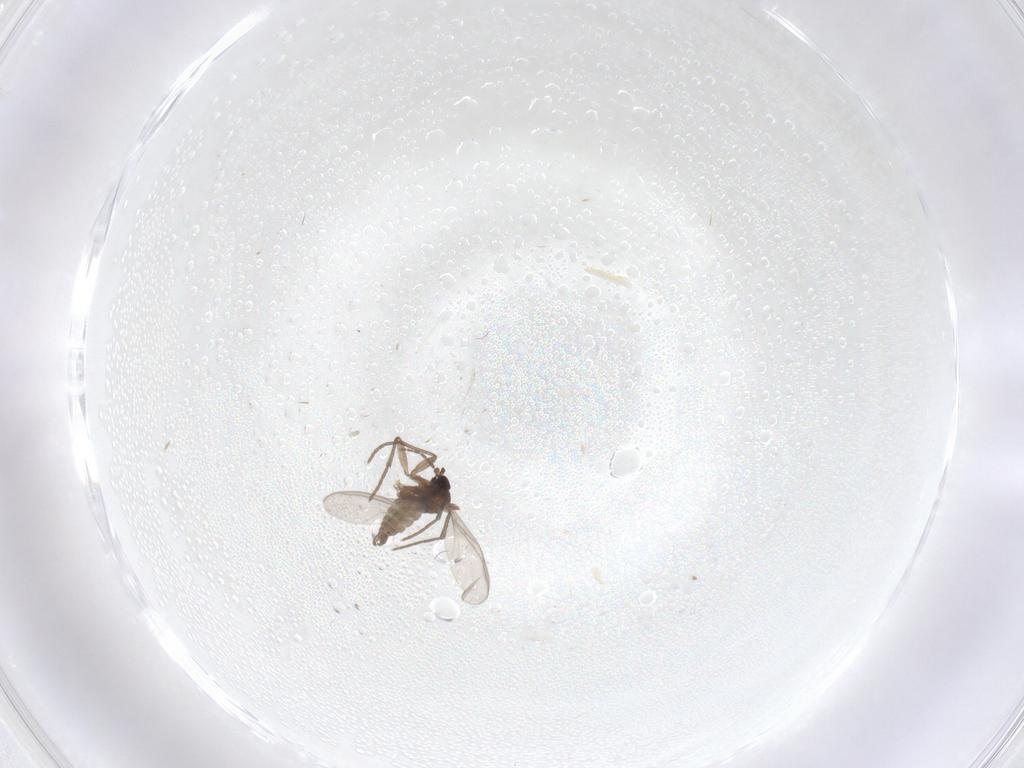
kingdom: Animalia
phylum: Arthropoda
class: Insecta
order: Diptera
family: Sciaridae
